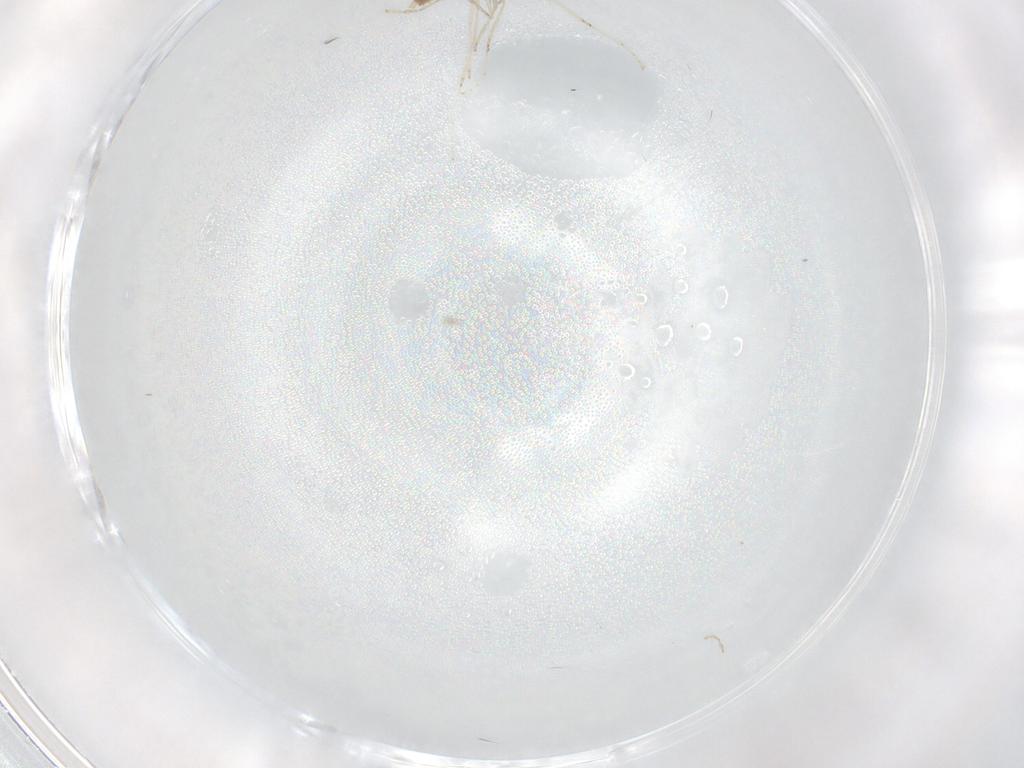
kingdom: Animalia
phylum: Arthropoda
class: Insecta
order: Diptera
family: Cecidomyiidae
